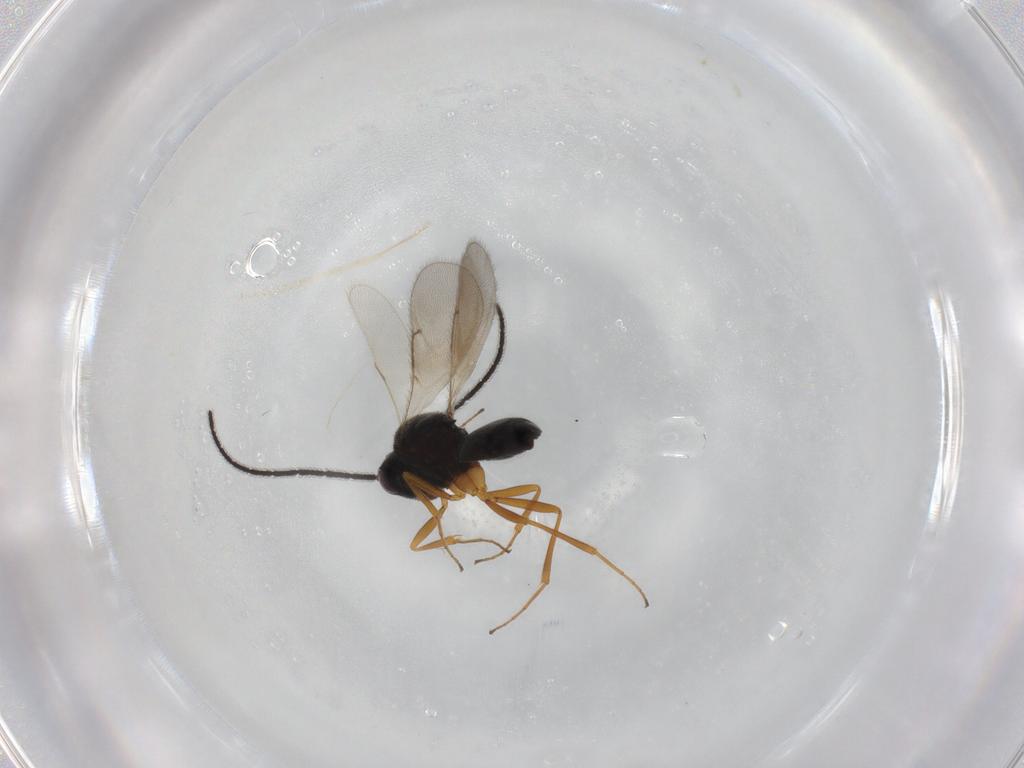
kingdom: Animalia
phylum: Arthropoda
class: Insecta
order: Hymenoptera
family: Scelionidae
